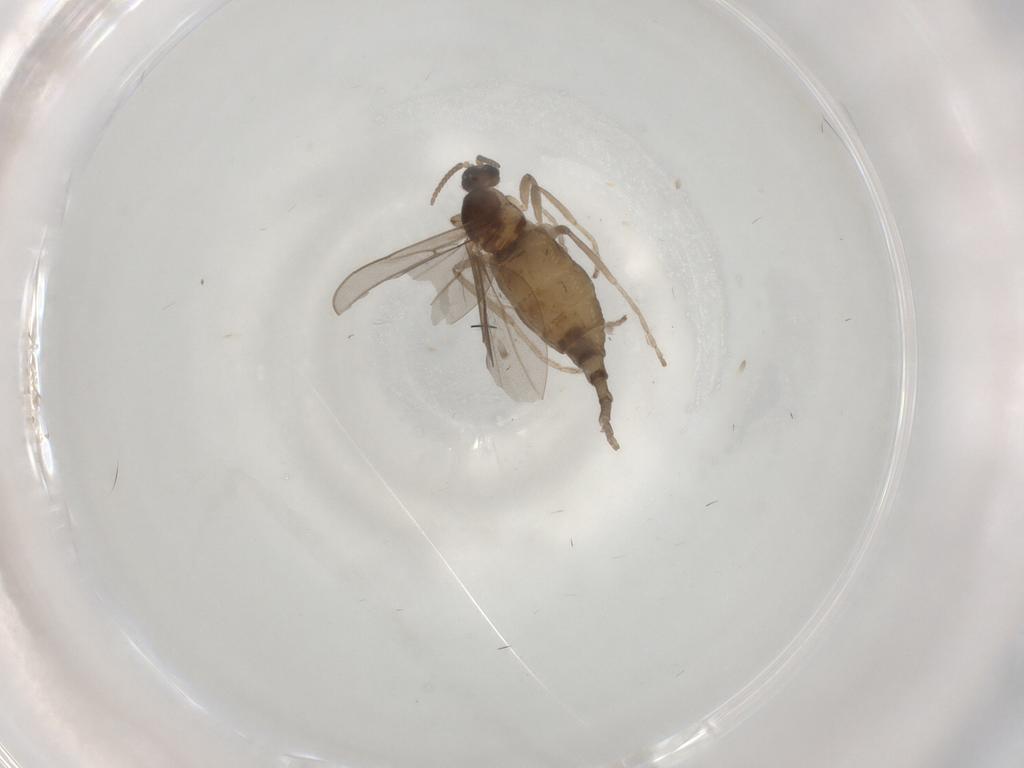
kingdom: Animalia
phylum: Arthropoda
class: Insecta
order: Diptera
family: Cecidomyiidae
